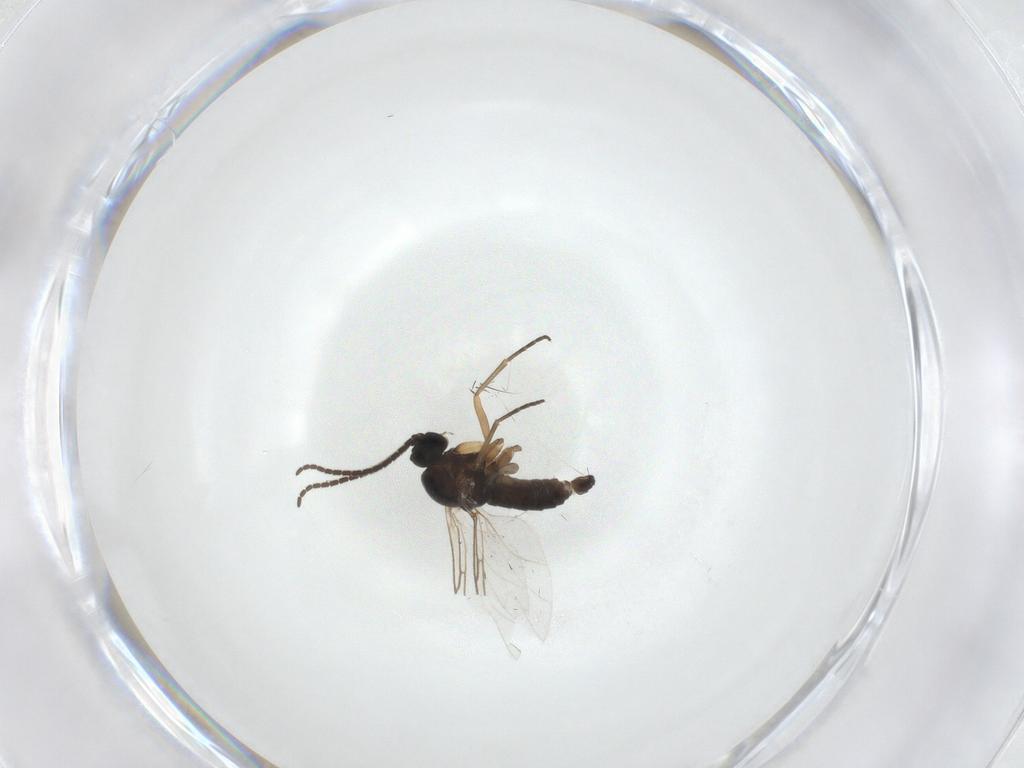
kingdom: Animalia
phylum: Arthropoda
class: Insecta
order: Diptera
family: Sciaridae
